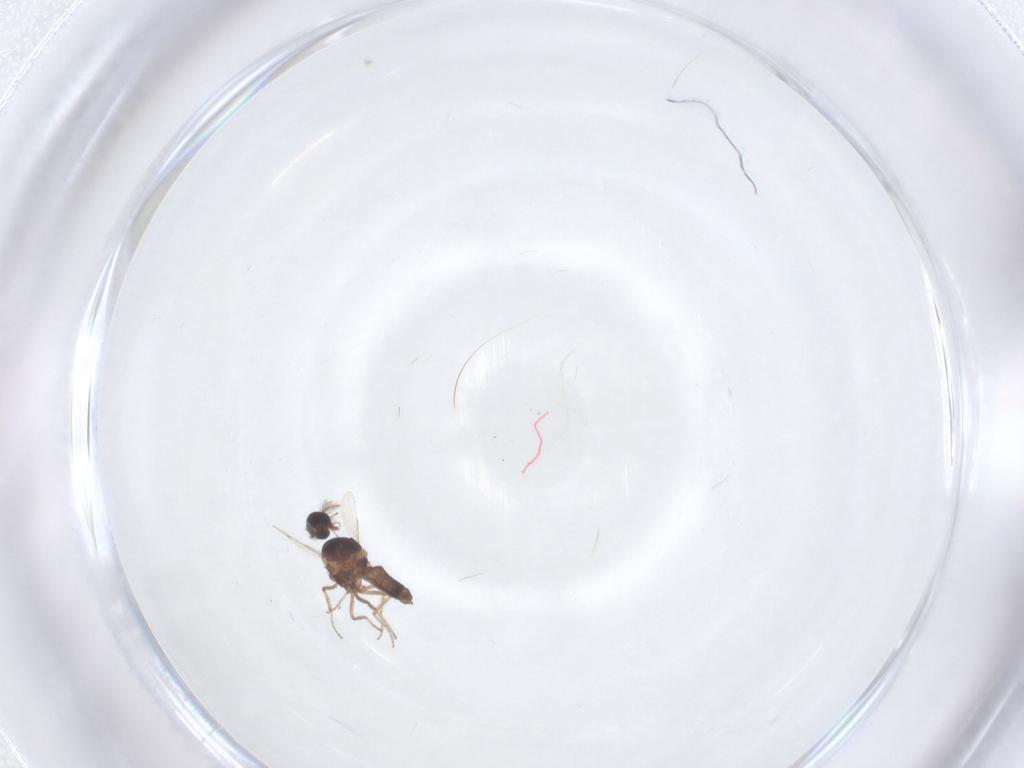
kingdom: Animalia
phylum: Arthropoda
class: Insecta
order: Diptera
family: Ceratopogonidae
